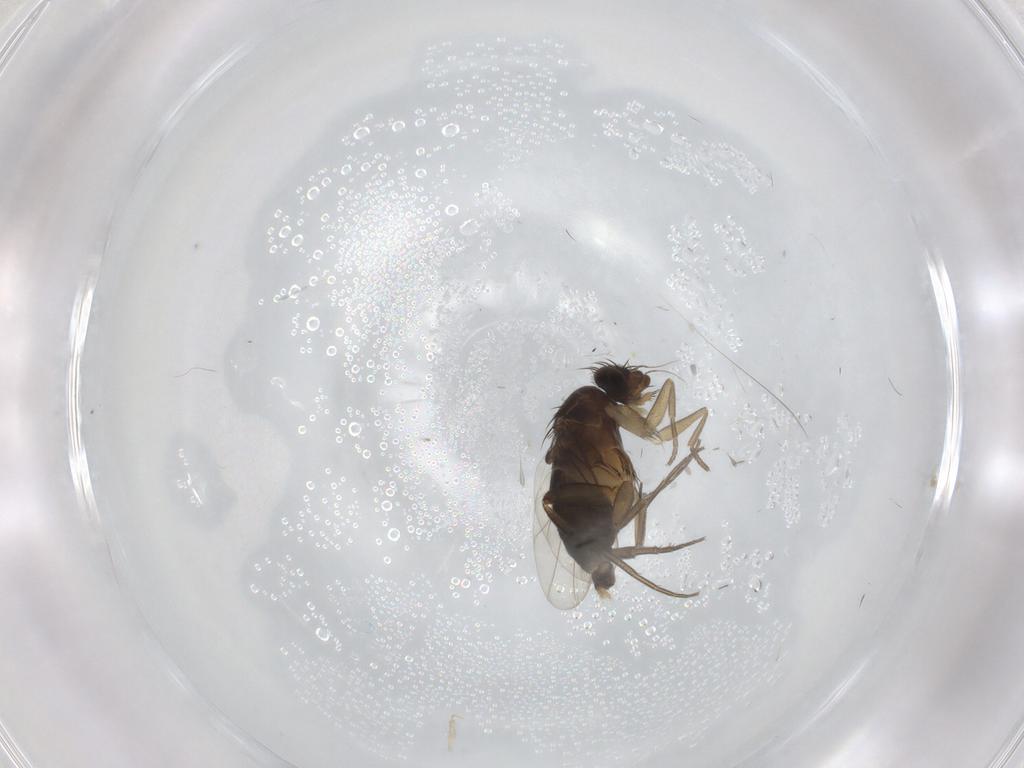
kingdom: Animalia
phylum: Arthropoda
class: Insecta
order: Diptera
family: Phoridae
